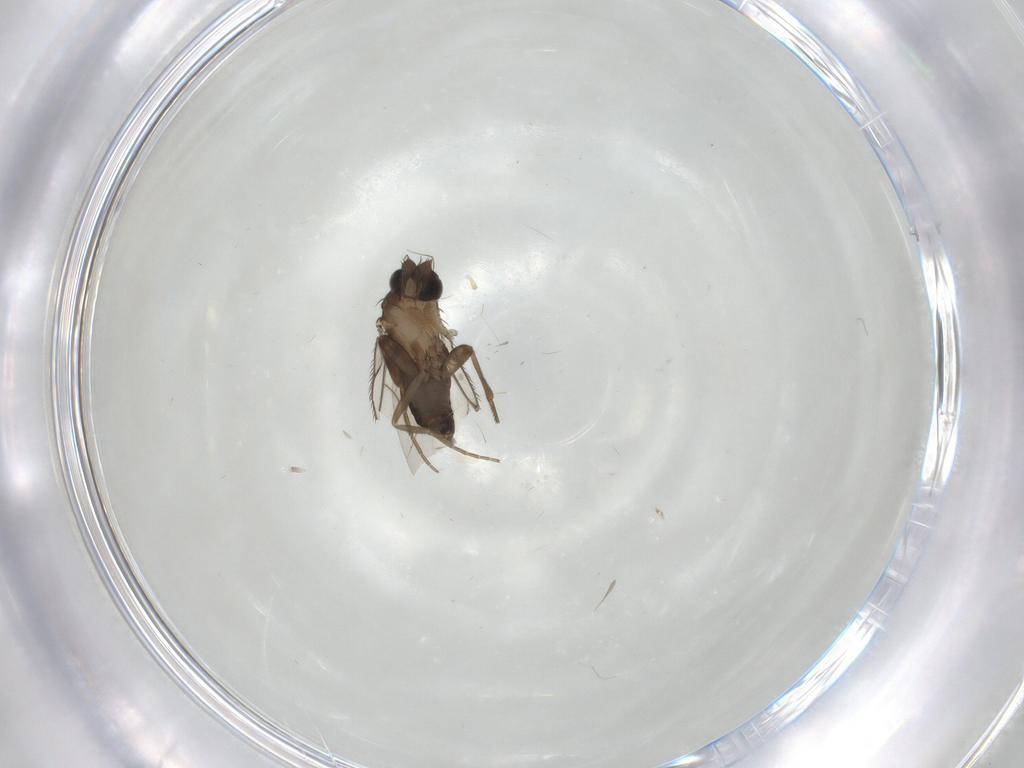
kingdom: Animalia
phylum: Arthropoda
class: Insecta
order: Diptera
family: Phoridae
